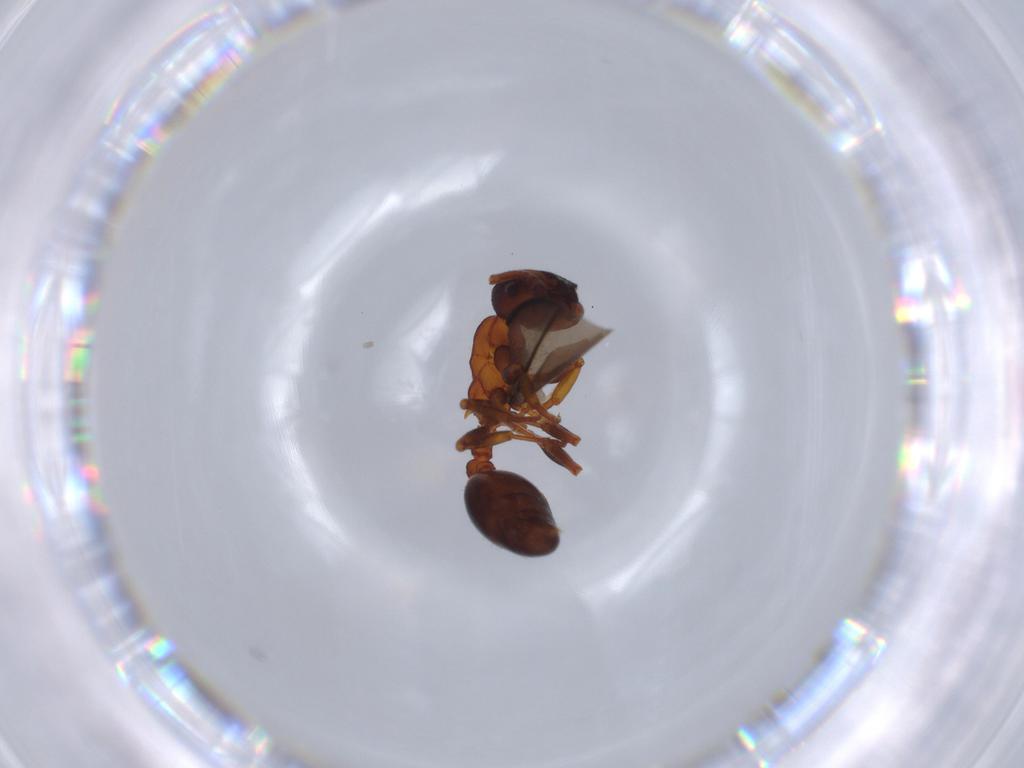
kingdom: Animalia
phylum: Arthropoda
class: Insecta
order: Hymenoptera
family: Formicidae
